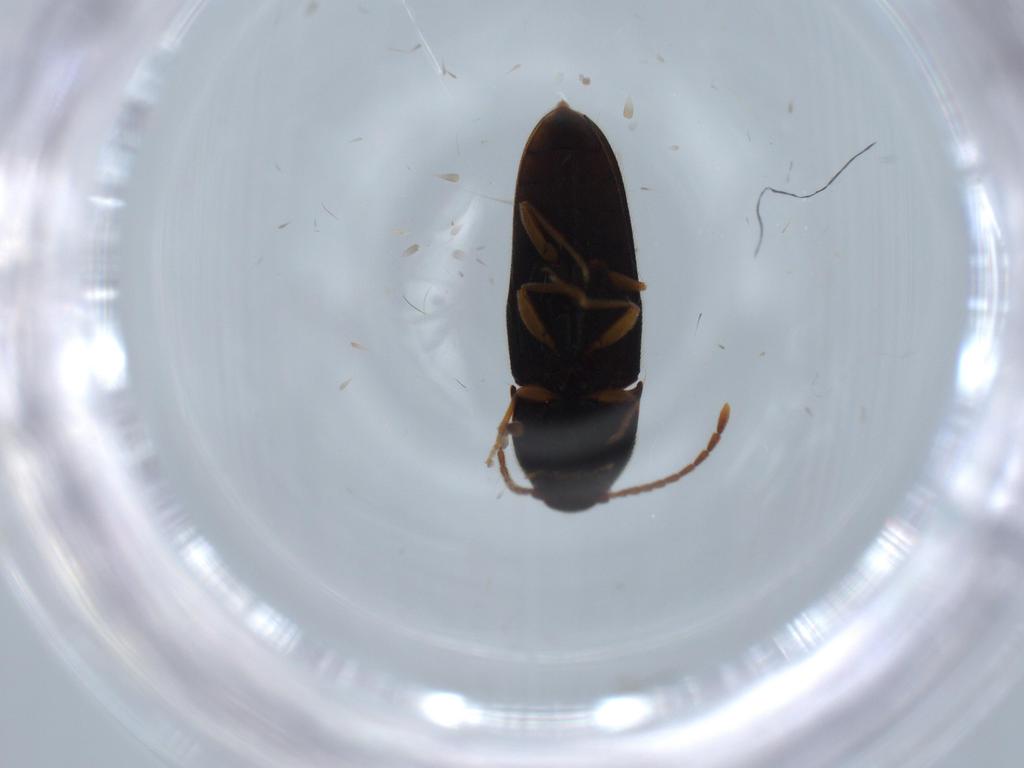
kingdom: Animalia
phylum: Arthropoda
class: Insecta
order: Coleoptera
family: Elateridae
